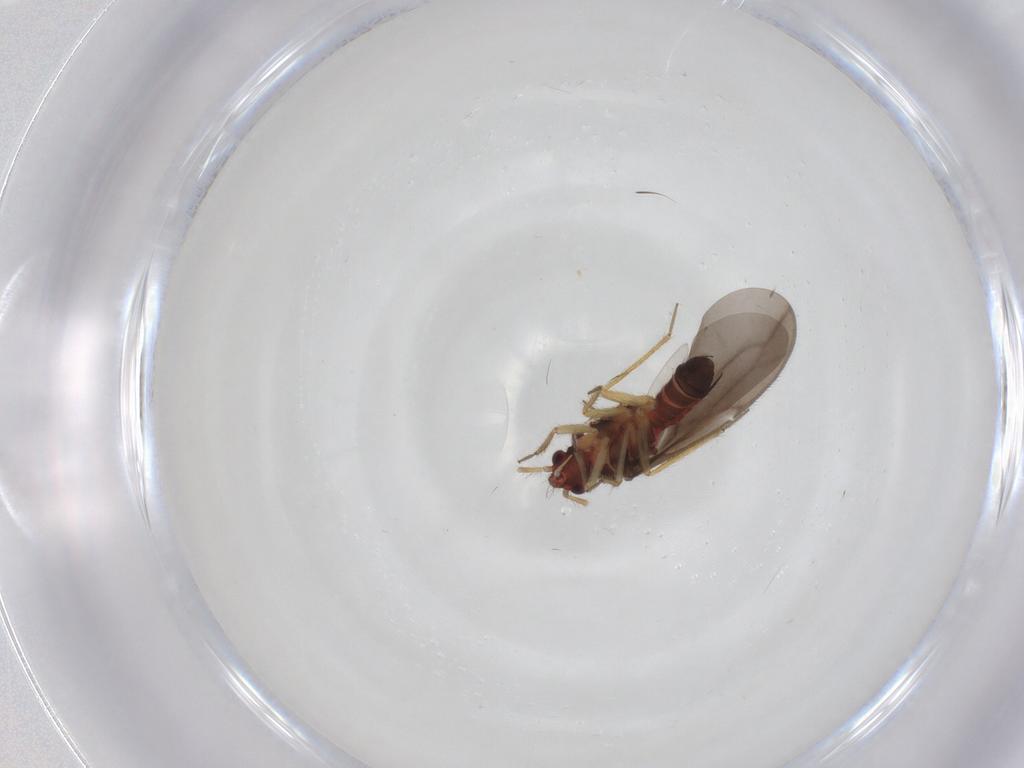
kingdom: Animalia
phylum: Arthropoda
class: Insecta
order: Hemiptera
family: Ceratocombidae
